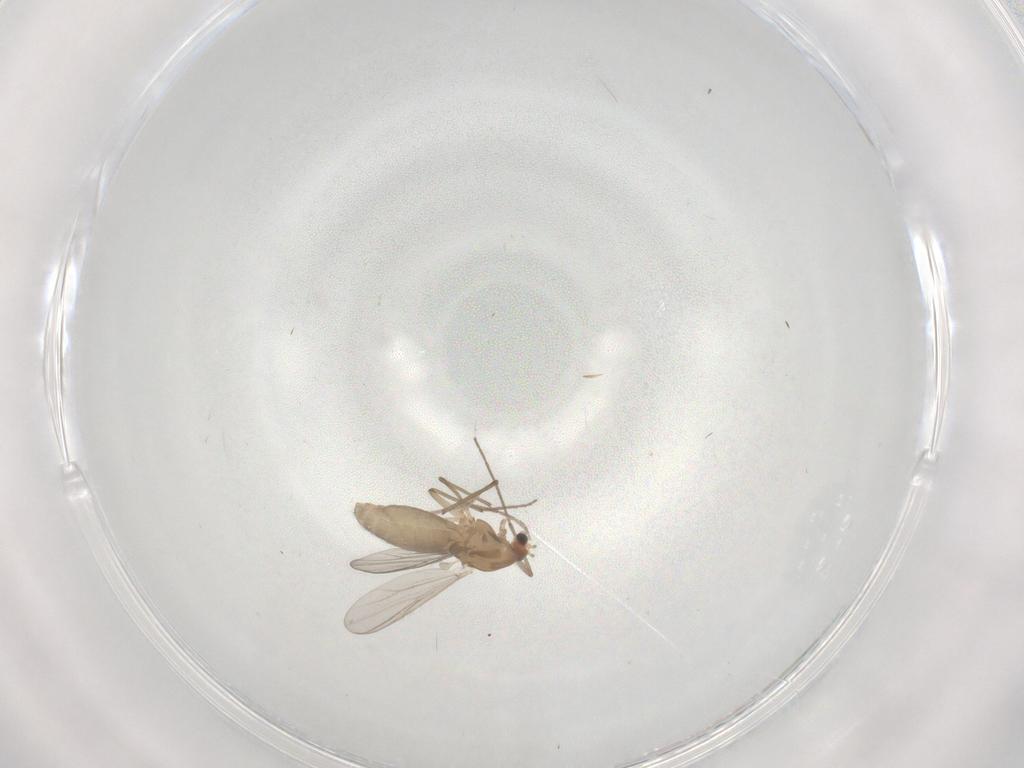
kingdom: Animalia
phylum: Arthropoda
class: Insecta
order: Diptera
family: Chironomidae
